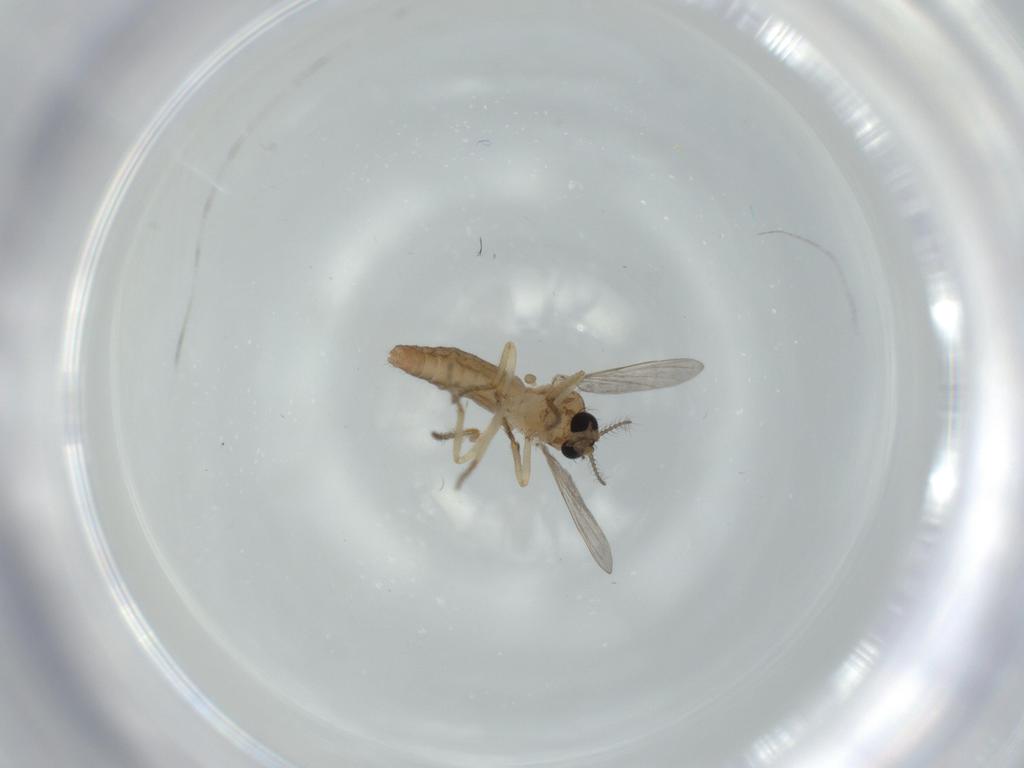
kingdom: Animalia
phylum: Arthropoda
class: Insecta
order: Diptera
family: Ceratopogonidae
